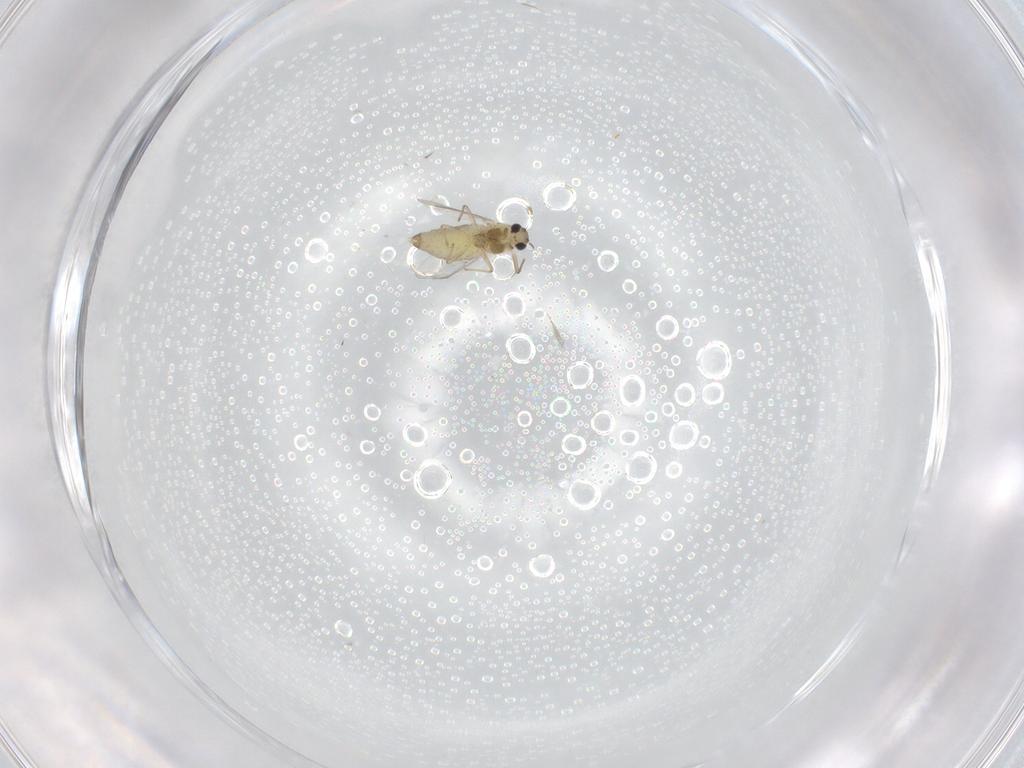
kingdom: Animalia
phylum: Arthropoda
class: Insecta
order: Diptera
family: Chironomidae
